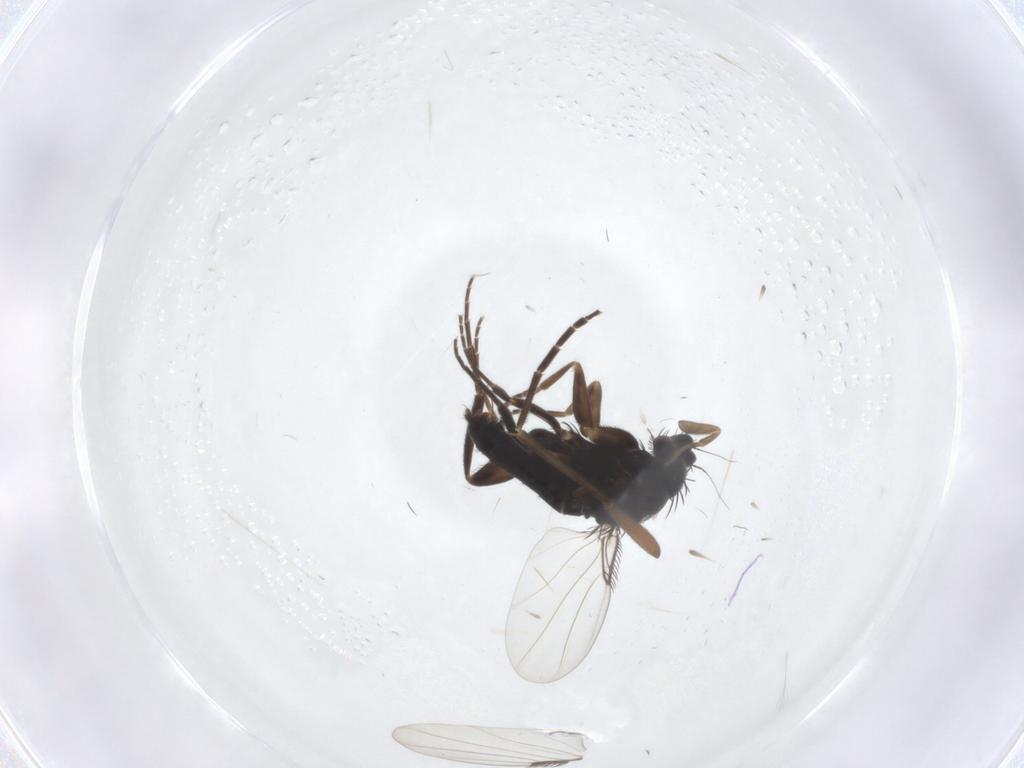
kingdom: Animalia
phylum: Arthropoda
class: Insecta
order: Diptera
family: Phoridae
